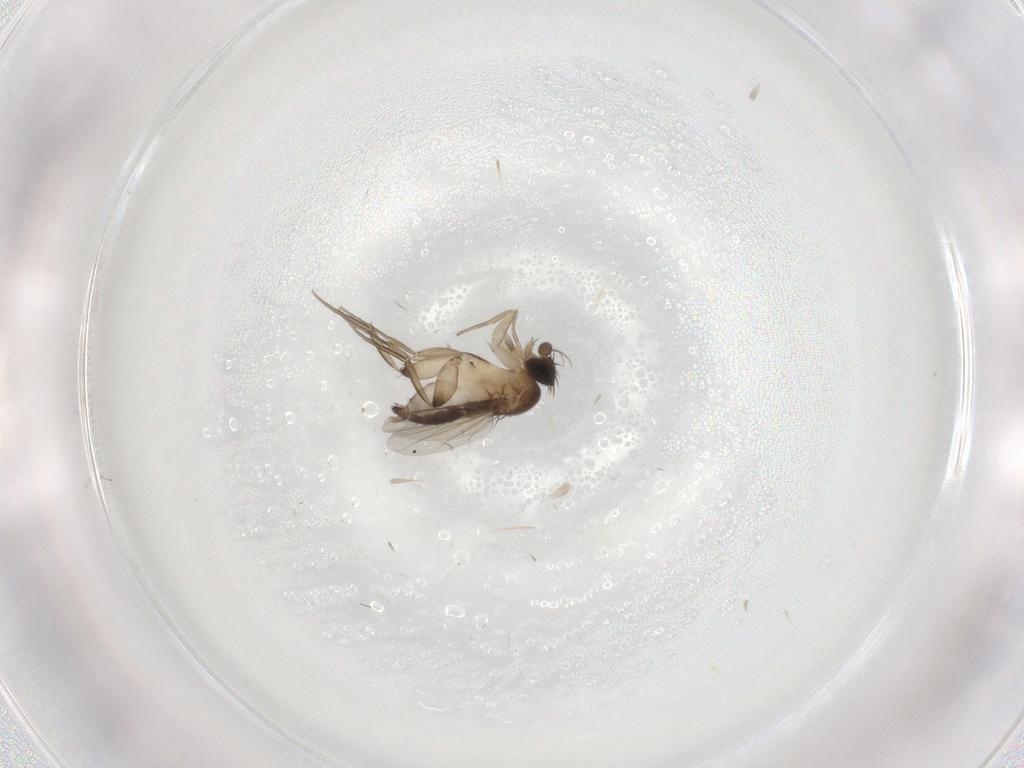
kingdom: Animalia
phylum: Arthropoda
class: Insecta
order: Diptera
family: Phoridae
